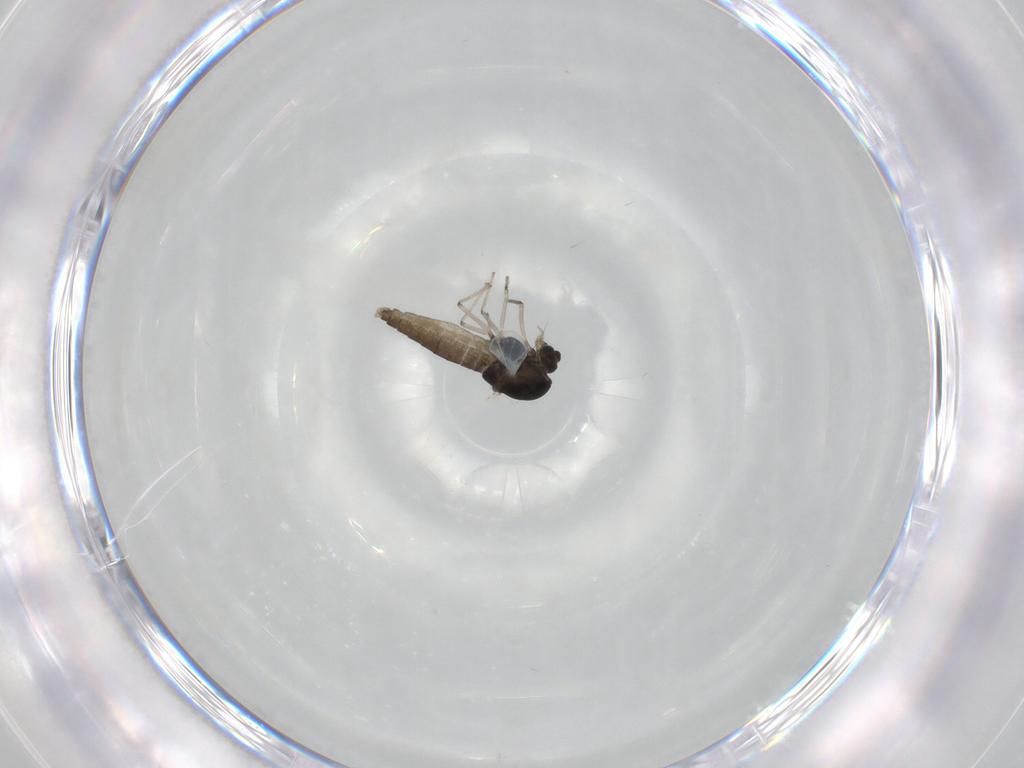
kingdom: Animalia
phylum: Arthropoda
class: Insecta
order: Diptera
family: Chironomidae
